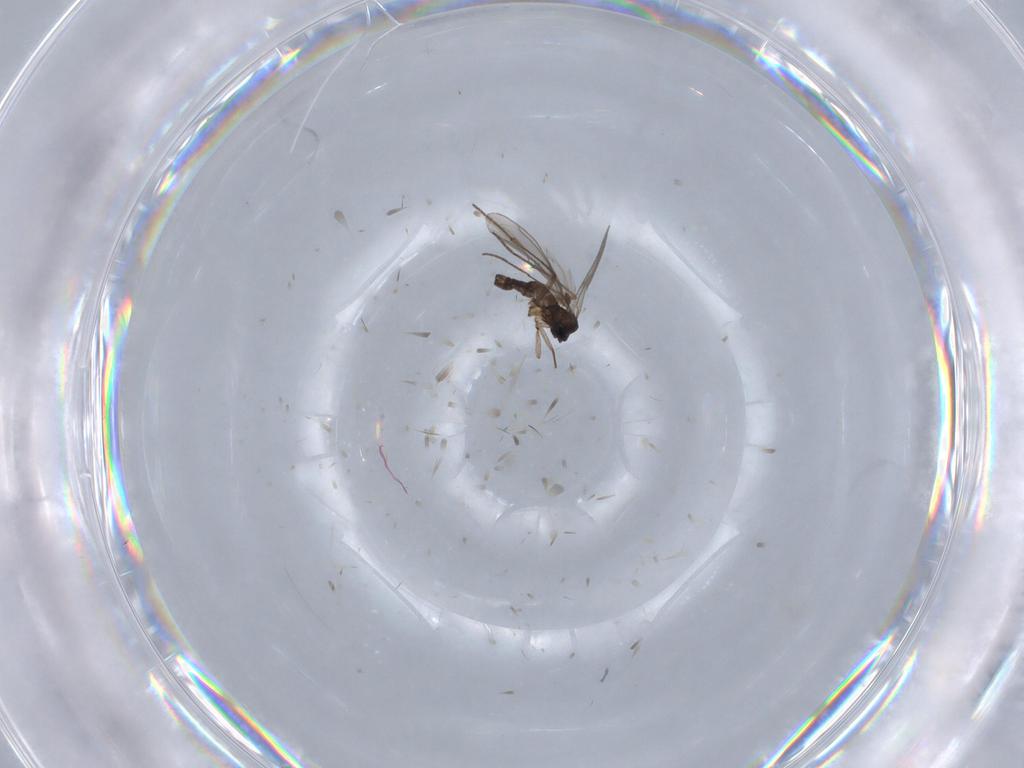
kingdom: Animalia
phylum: Arthropoda
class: Insecta
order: Diptera
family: Sciaridae
